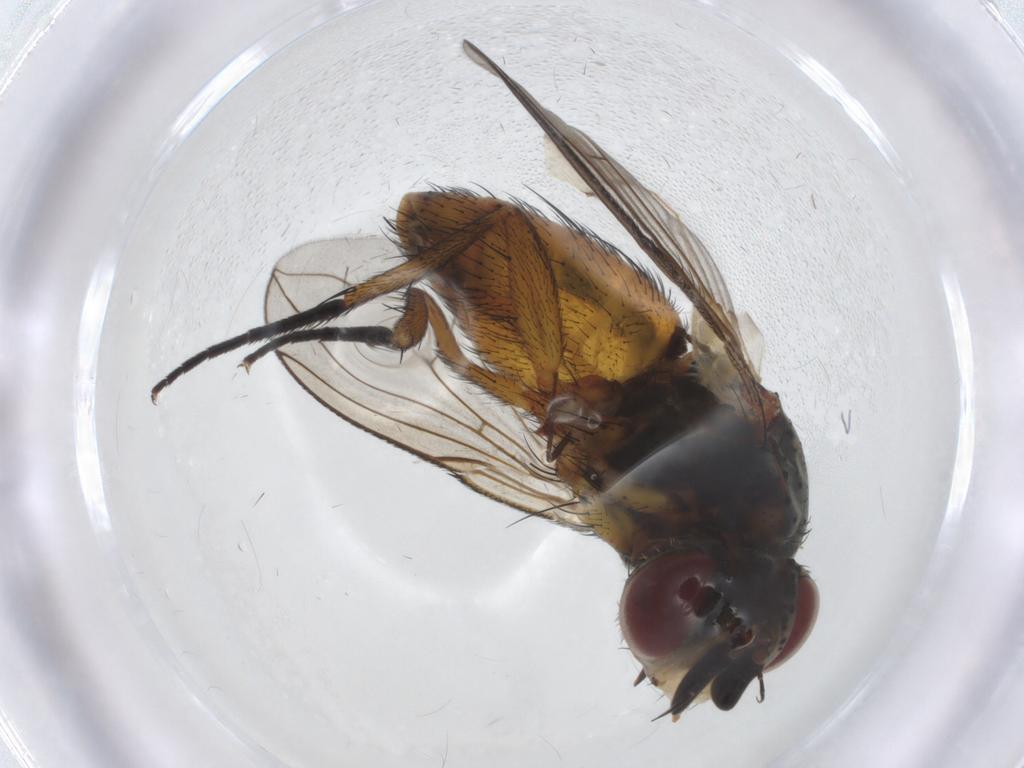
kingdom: Animalia
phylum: Arthropoda
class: Insecta
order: Diptera
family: Tachinidae
